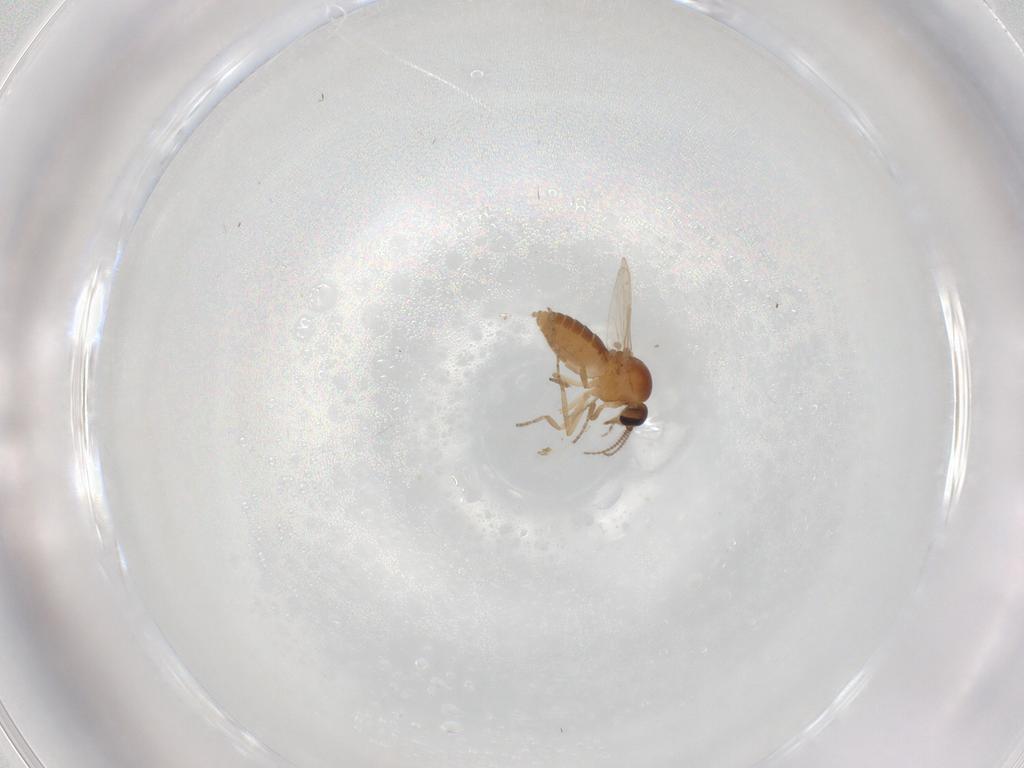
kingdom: Animalia
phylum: Arthropoda
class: Insecta
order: Diptera
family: Ceratopogonidae
